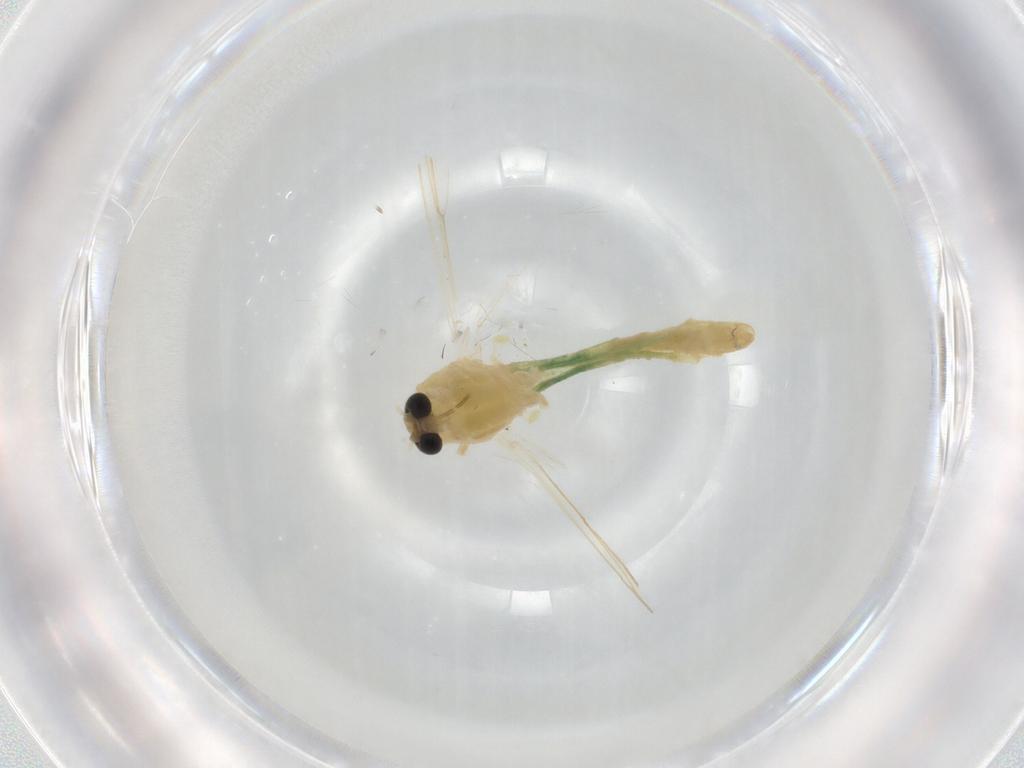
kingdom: Animalia
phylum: Arthropoda
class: Insecta
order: Diptera
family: Chironomidae
